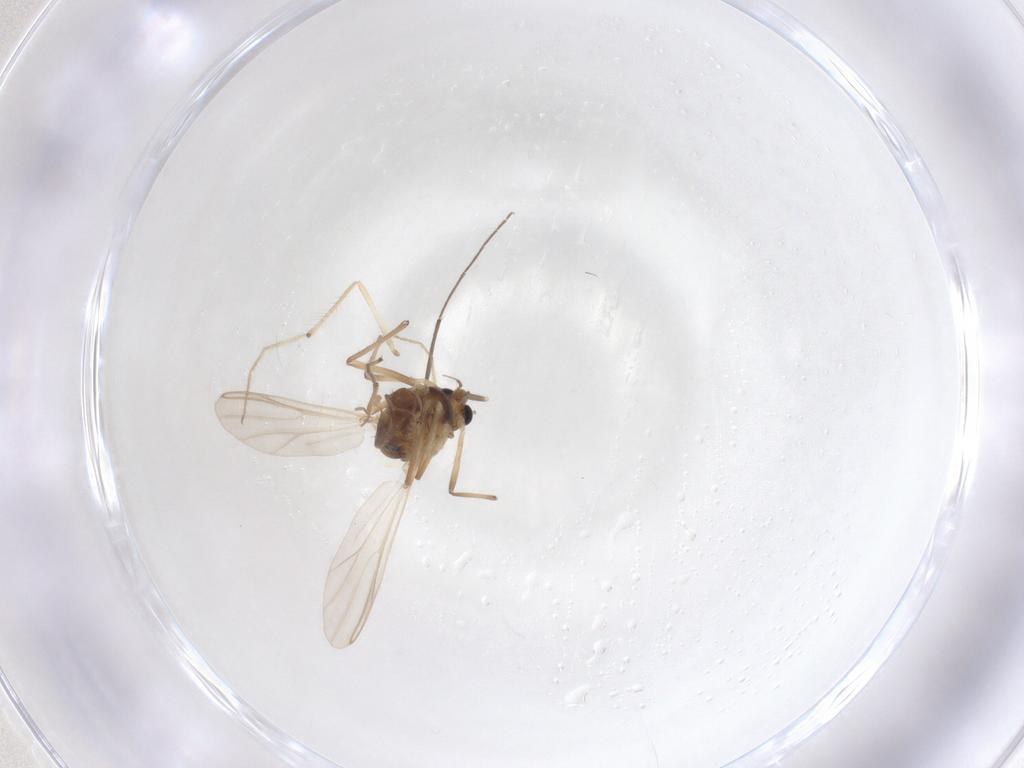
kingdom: Animalia
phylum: Arthropoda
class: Insecta
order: Diptera
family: Chironomidae
